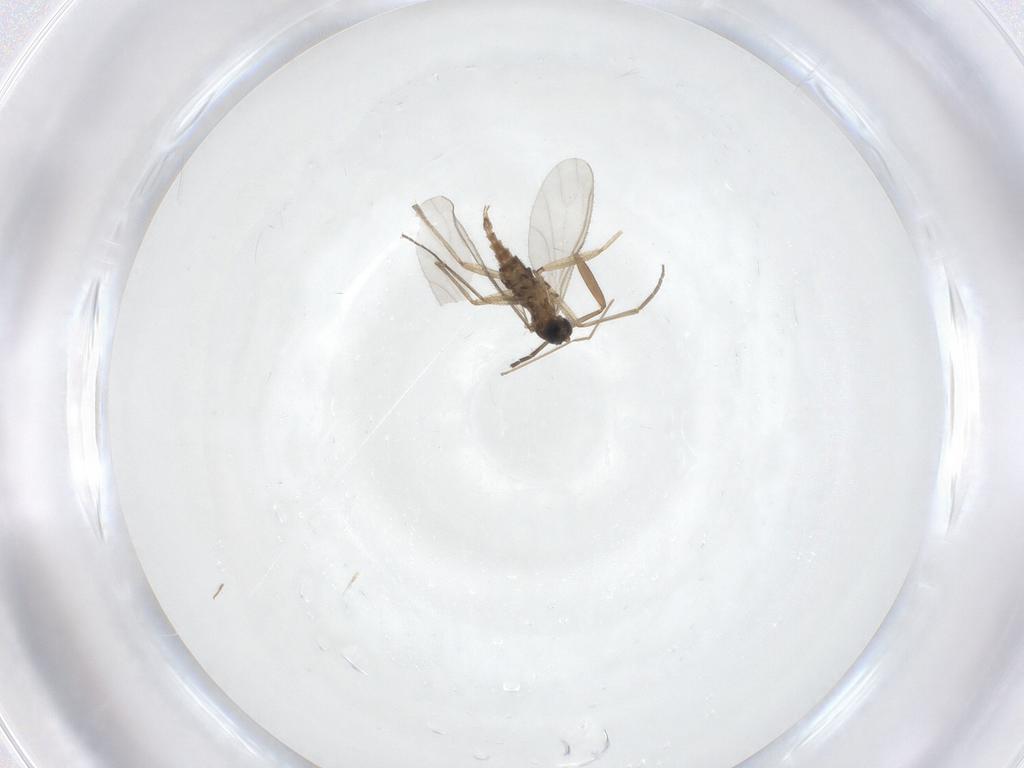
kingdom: Animalia
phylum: Arthropoda
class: Insecta
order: Diptera
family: Sciaridae
